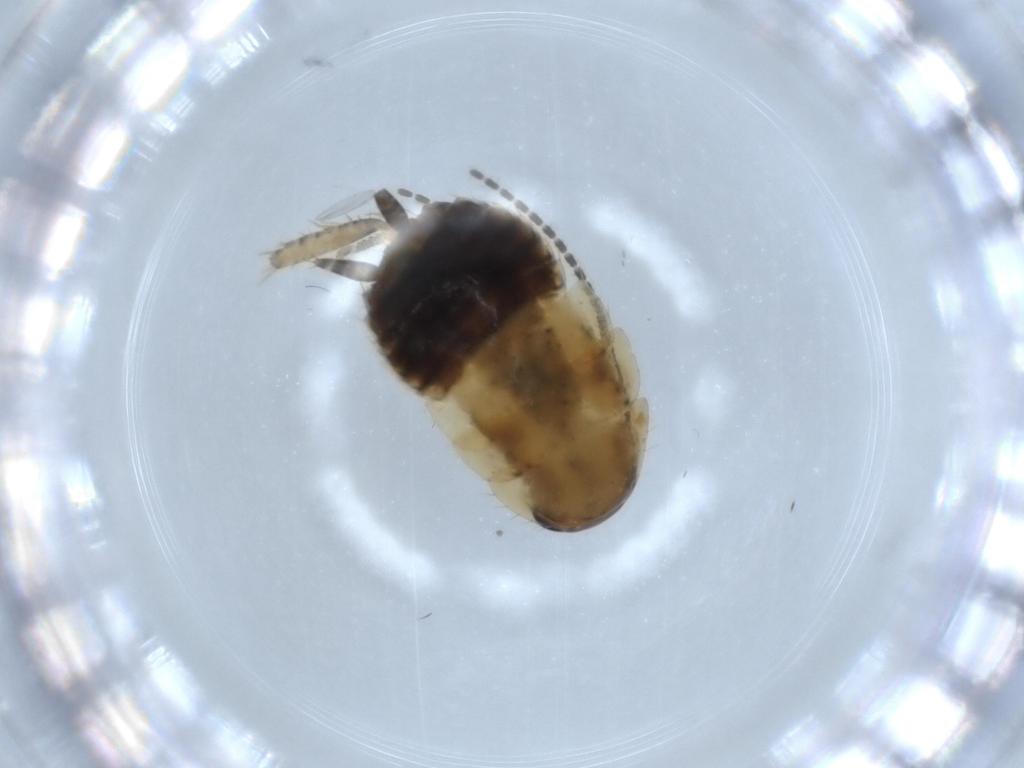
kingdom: Animalia
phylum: Arthropoda
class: Insecta
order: Blattodea
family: Ectobiidae
